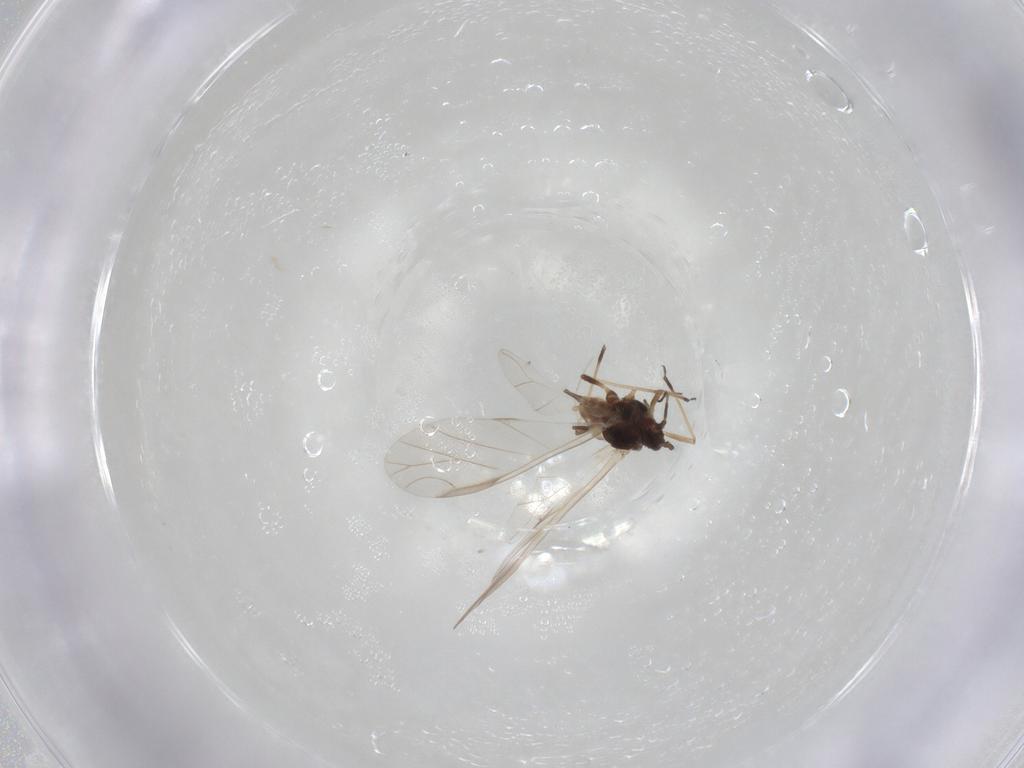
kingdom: Animalia
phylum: Arthropoda
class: Insecta
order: Hemiptera
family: Aphididae
